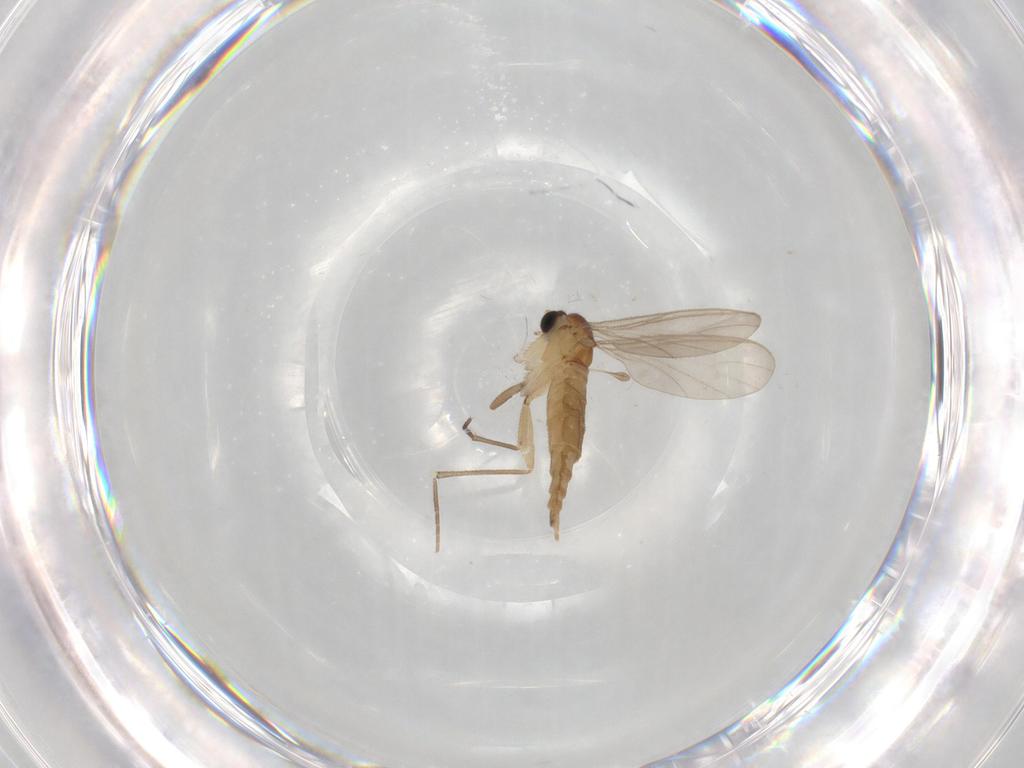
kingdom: Animalia
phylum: Arthropoda
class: Insecta
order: Diptera
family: Sciaridae
